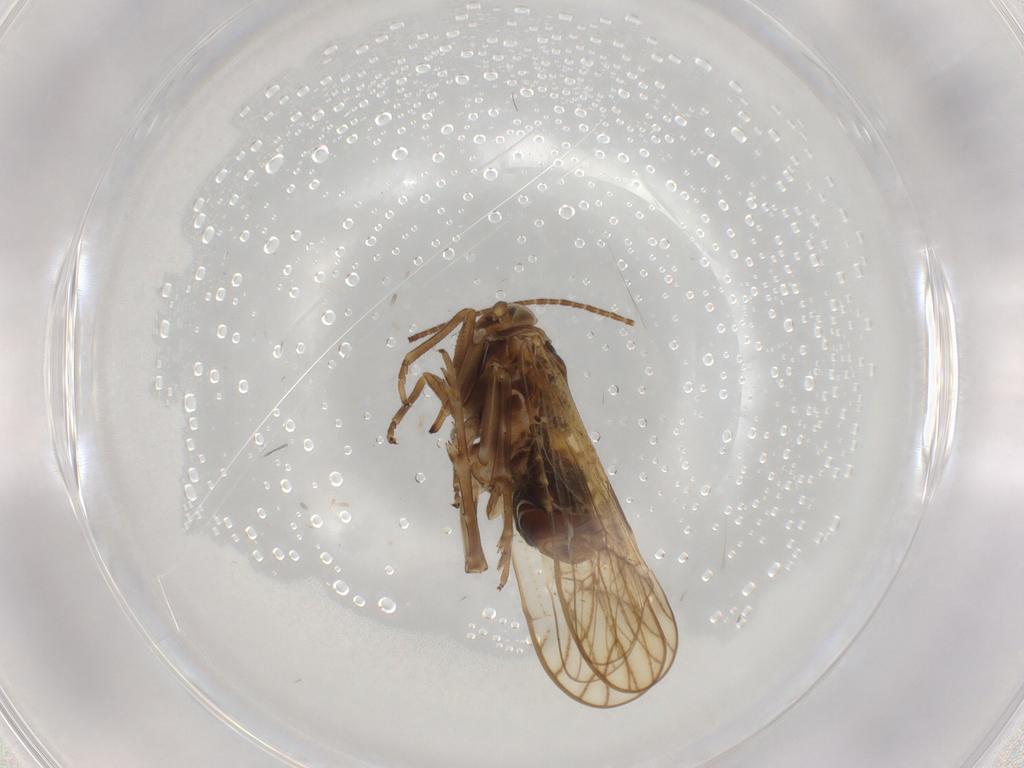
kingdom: Animalia
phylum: Arthropoda
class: Insecta
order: Hemiptera
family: Delphacidae
